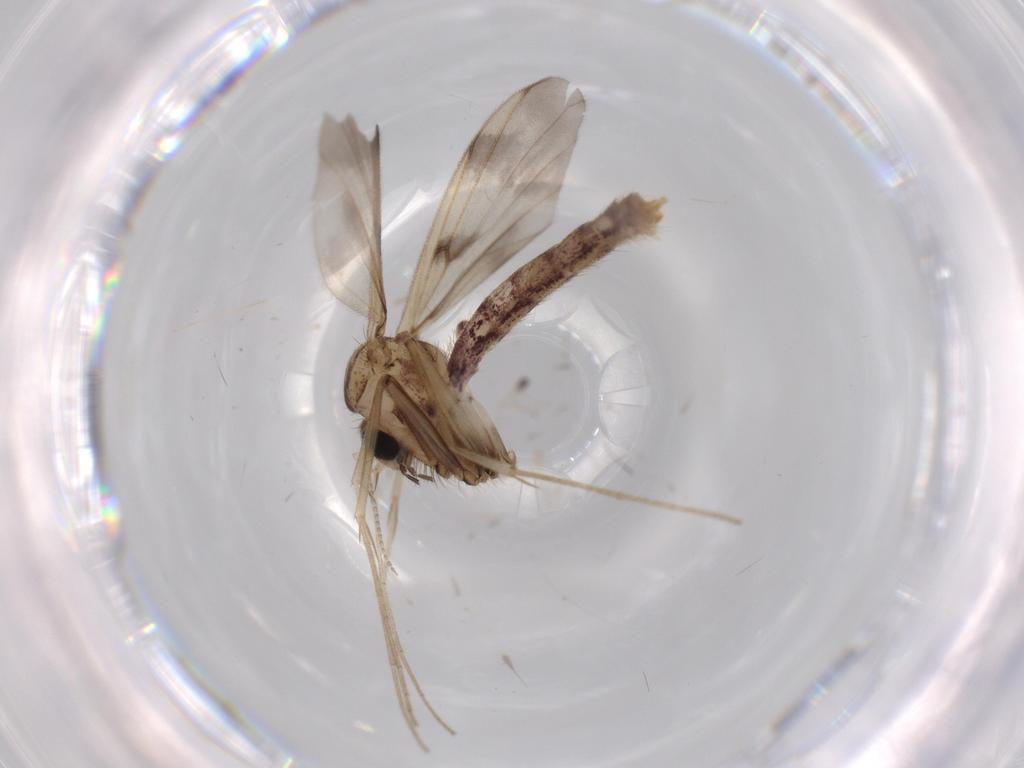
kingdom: Animalia
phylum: Arthropoda
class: Insecta
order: Diptera
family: Mycetophilidae
